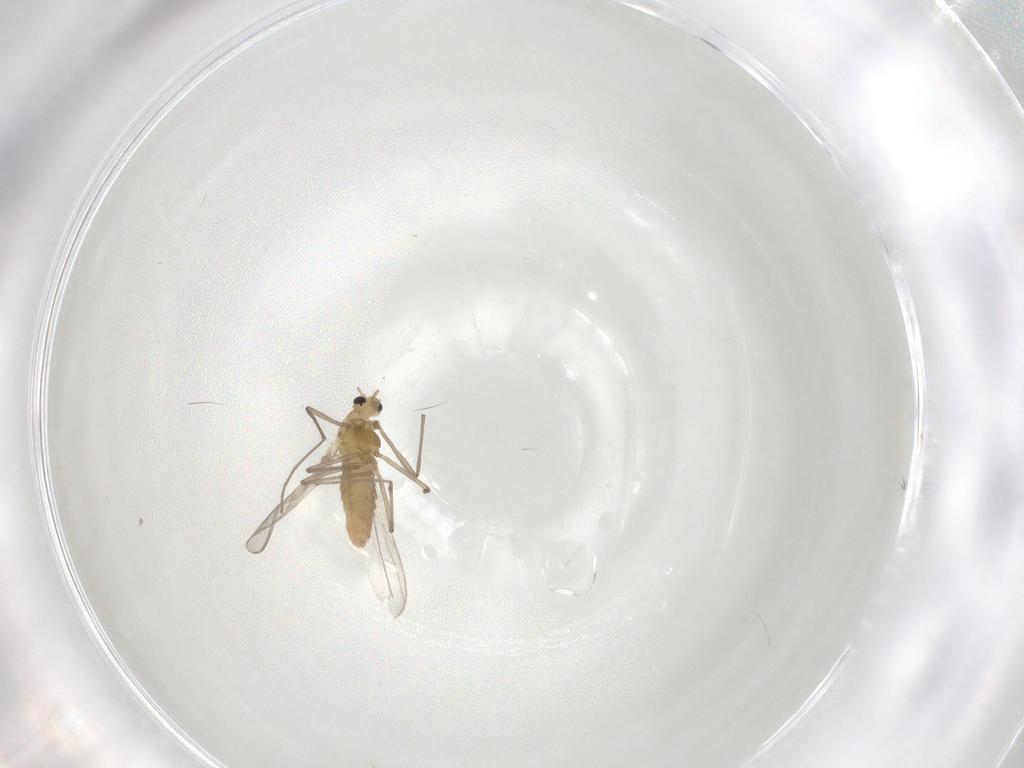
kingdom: Animalia
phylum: Arthropoda
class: Insecta
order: Diptera
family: Chironomidae
